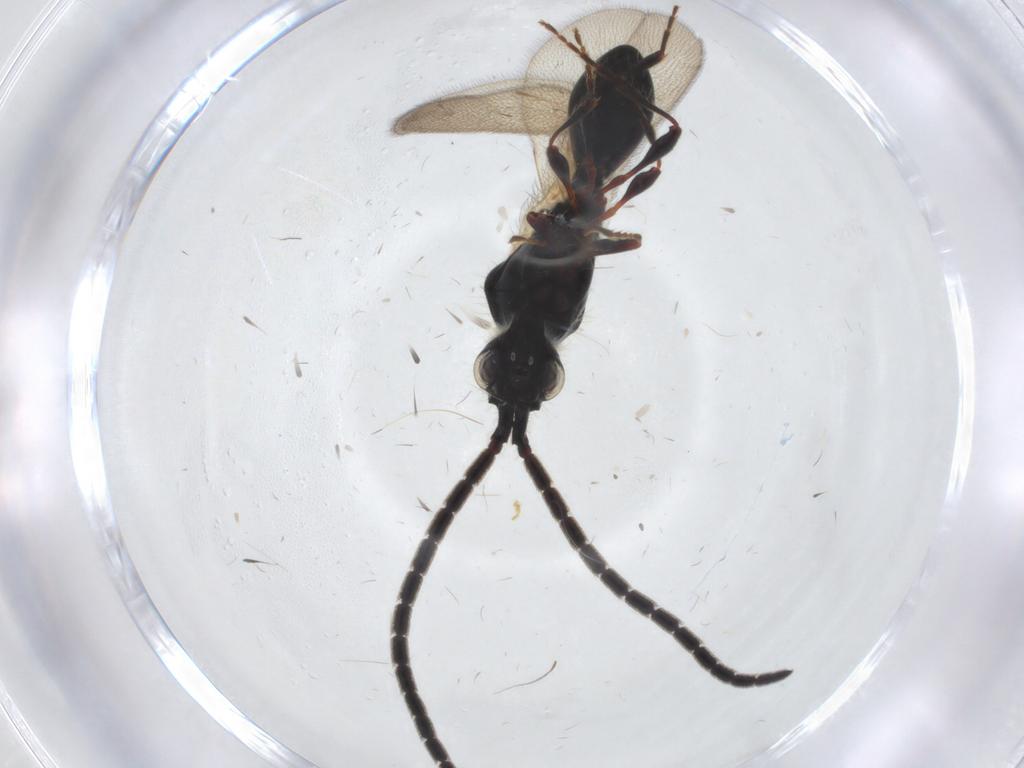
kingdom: Animalia
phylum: Arthropoda
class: Insecta
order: Hymenoptera
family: Diapriidae
